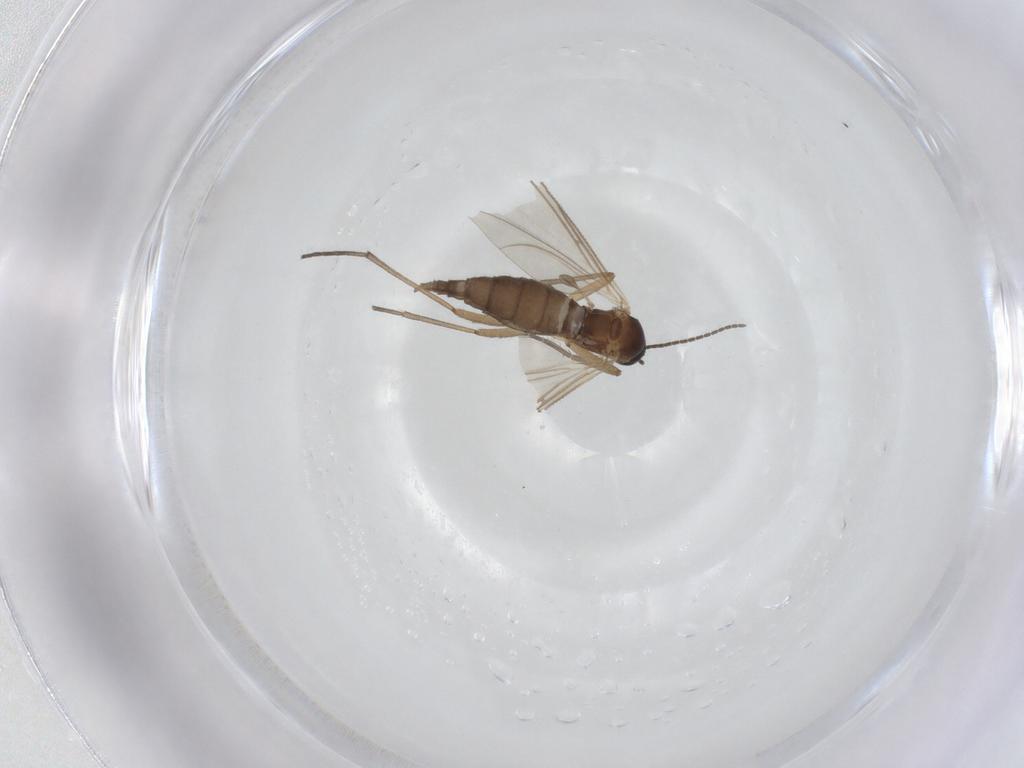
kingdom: Animalia
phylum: Arthropoda
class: Insecta
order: Diptera
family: Sciaridae
